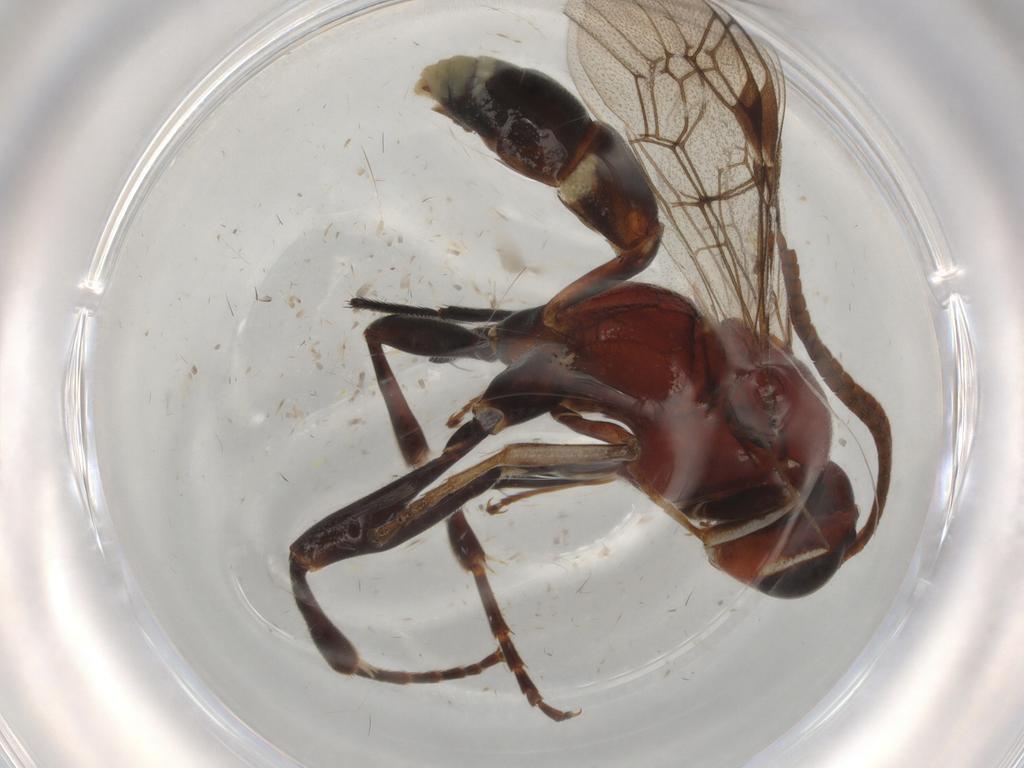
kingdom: Animalia
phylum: Arthropoda
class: Insecta
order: Hymenoptera
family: Ichneumonidae
